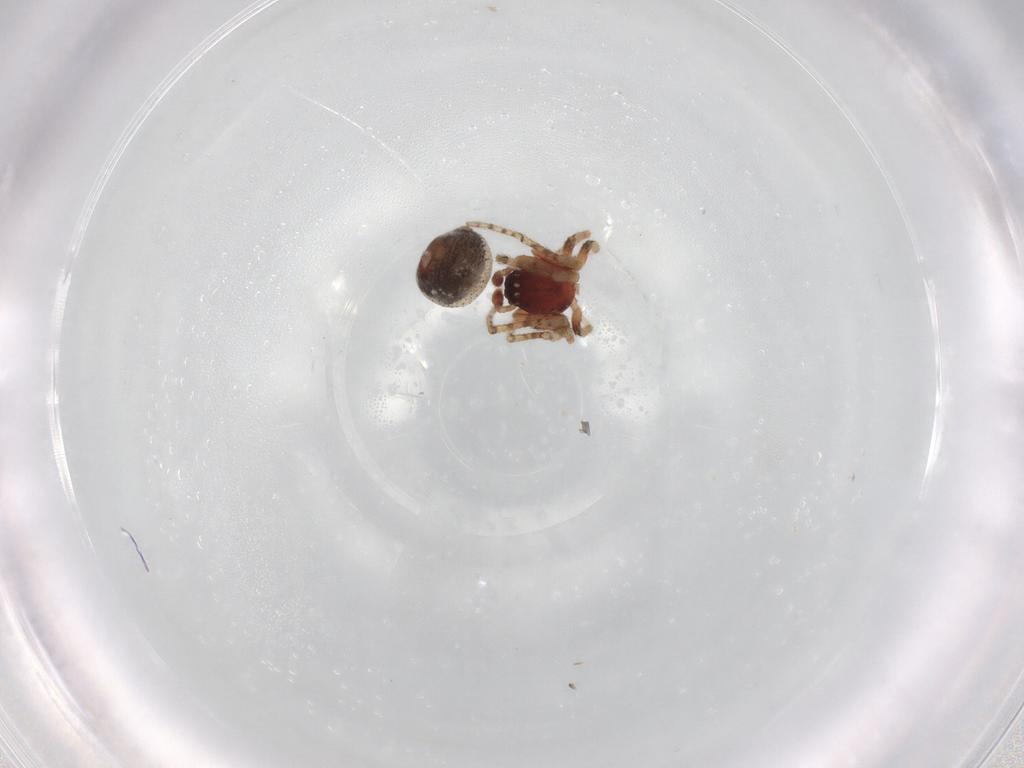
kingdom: Animalia
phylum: Arthropoda
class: Arachnida
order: Araneae
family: Theridiidae
